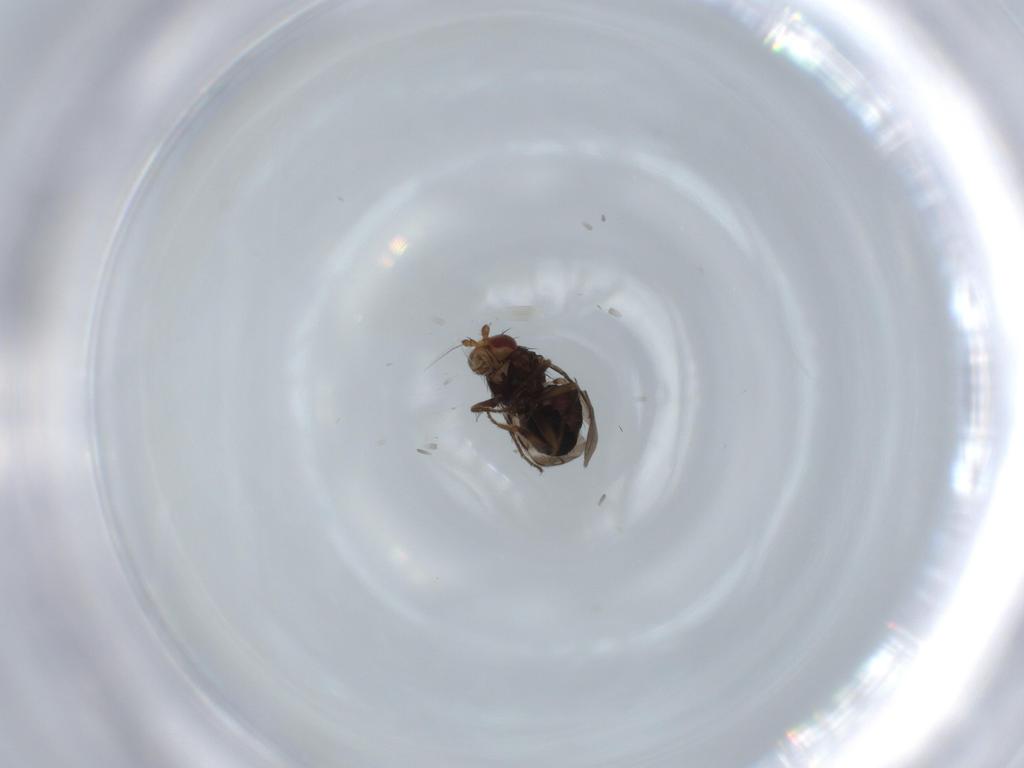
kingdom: Animalia
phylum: Arthropoda
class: Insecta
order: Diptera
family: Sphaeroceridae
